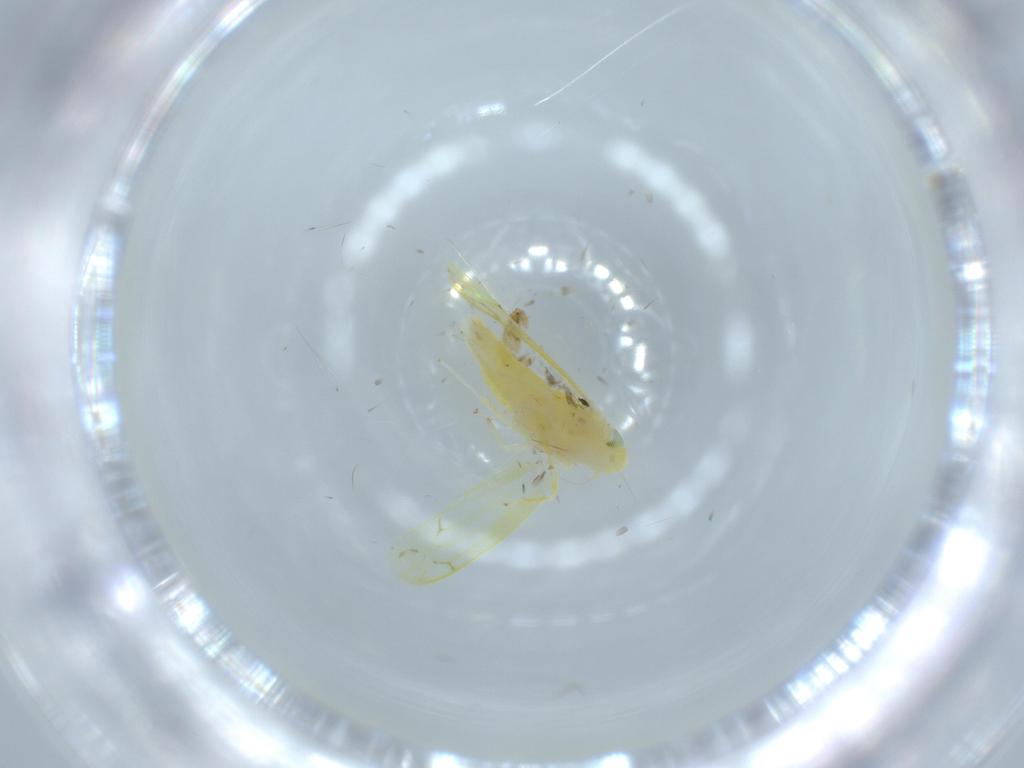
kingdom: Animalia
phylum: Arthropoda
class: Insecta
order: Hemiptera
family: Cicadellidae
